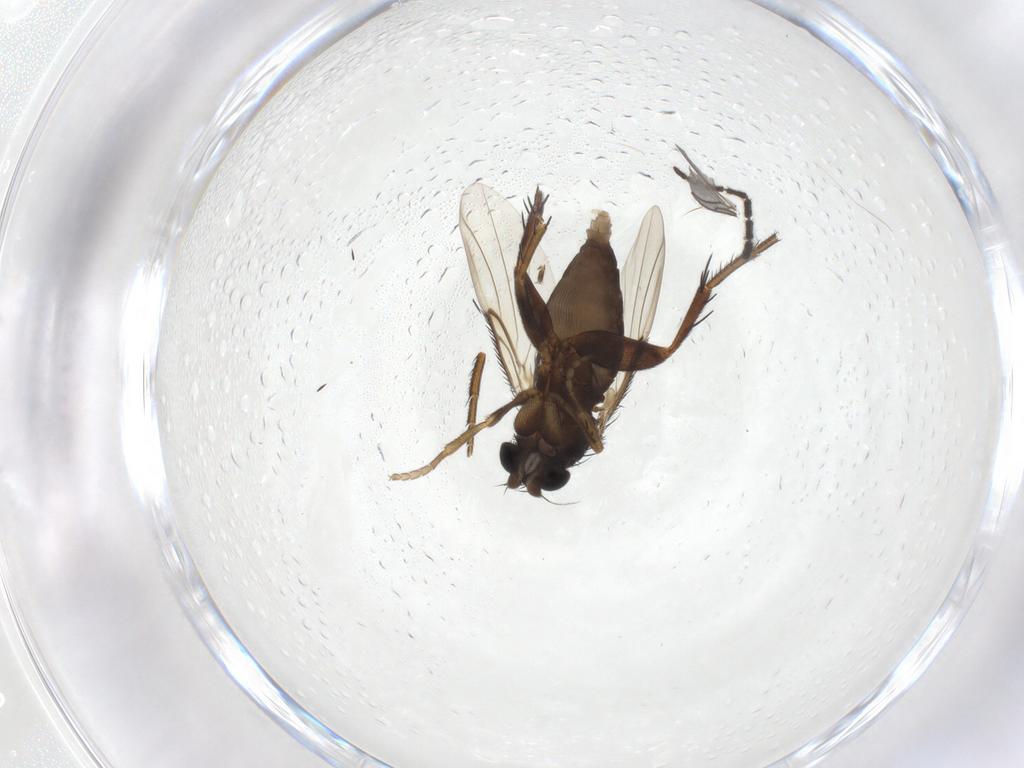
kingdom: Animalia
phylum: Arthropoda
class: Insecta
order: Diptera
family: Phoridae
